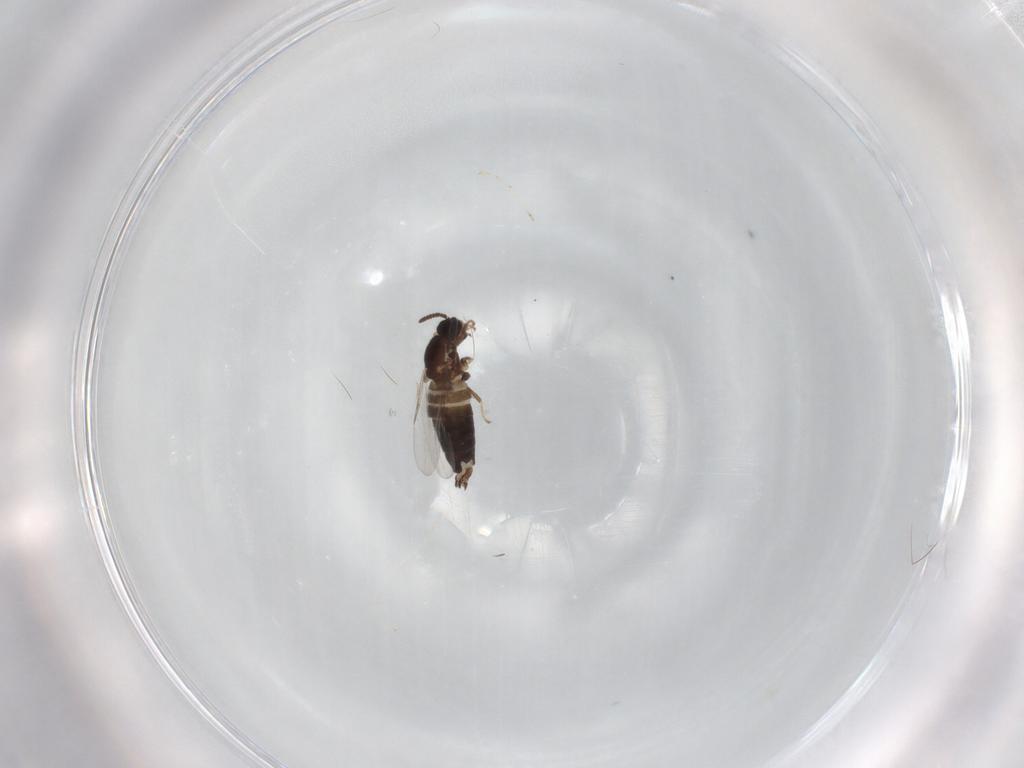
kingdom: Animalia
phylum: Arthropoda
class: Insecta
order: Diptera
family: Scatopsidae
